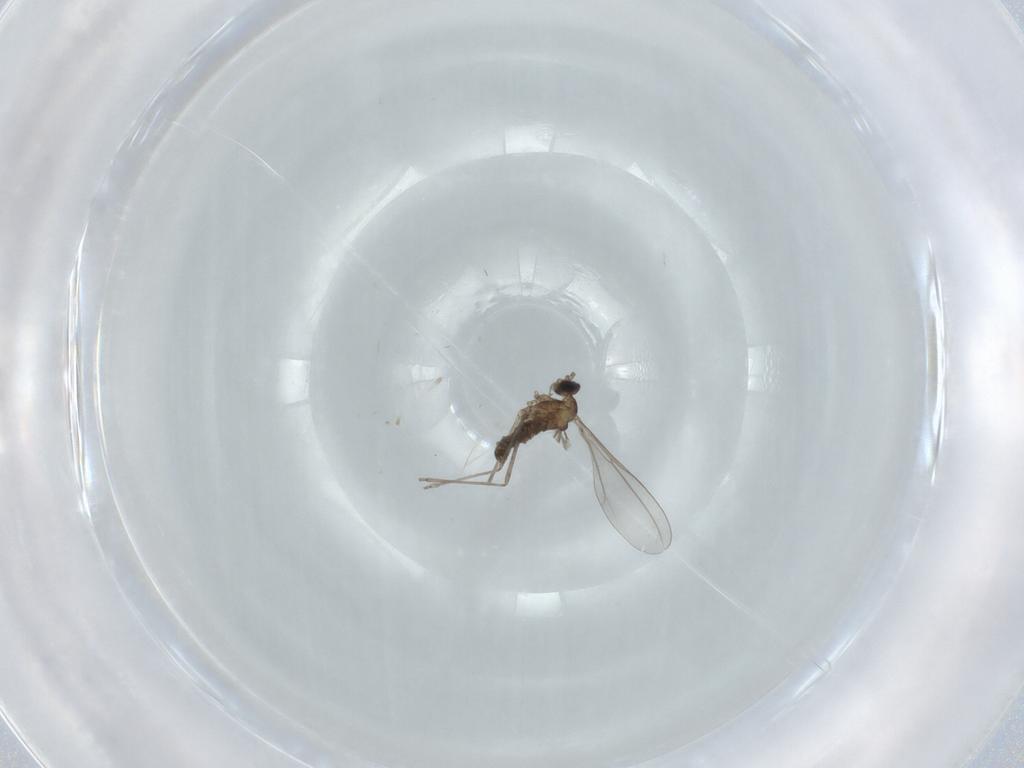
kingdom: Animalia
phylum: Arthropoda
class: Insecta
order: Diptera
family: Cecidomyiidae
